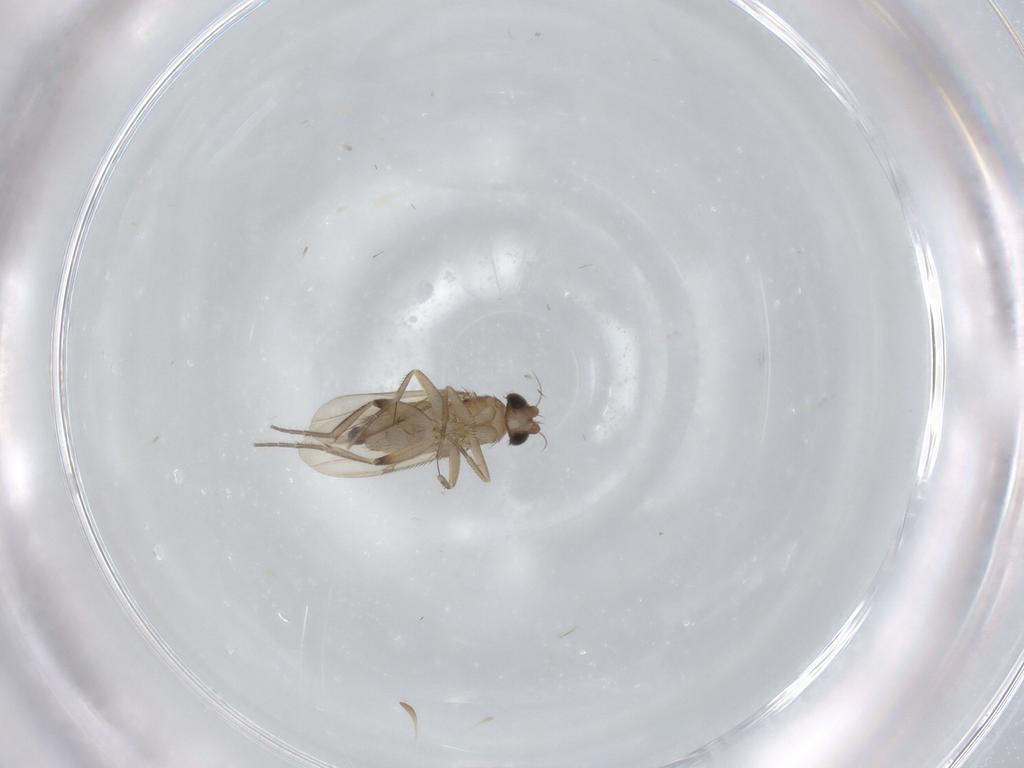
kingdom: Animalia
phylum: Arthropoda
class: Insecta
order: Diptera
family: Phoridae
